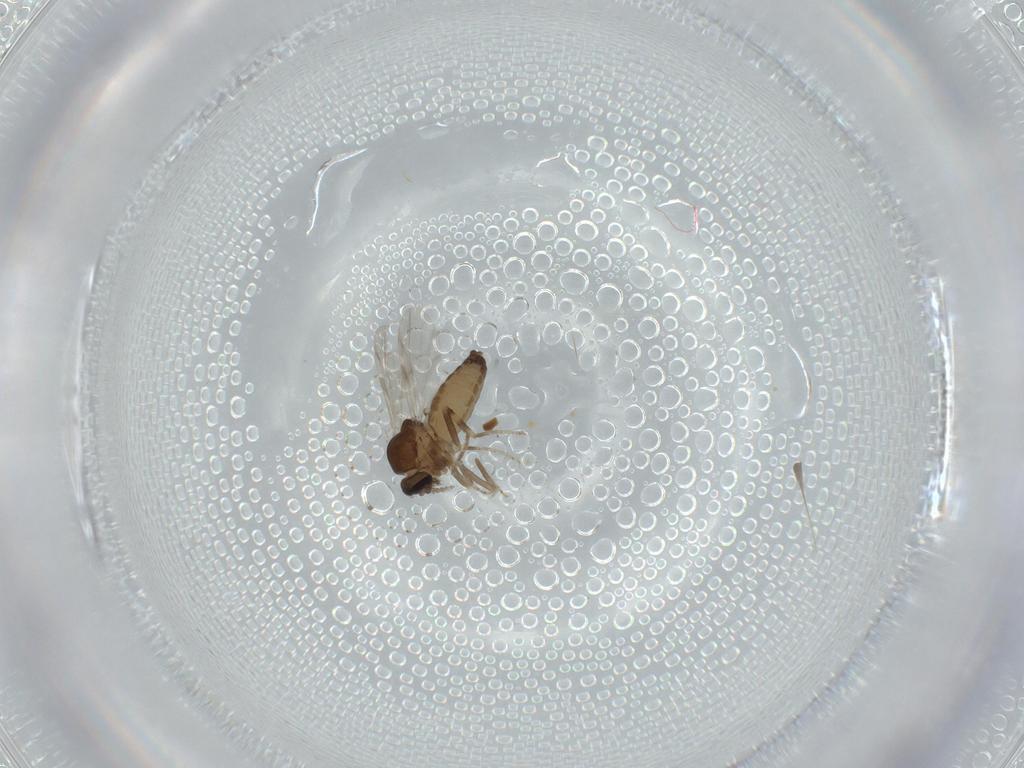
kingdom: Animalia
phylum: Arthropoda
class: Insecta
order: Diptera
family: Ceratopogonidae
